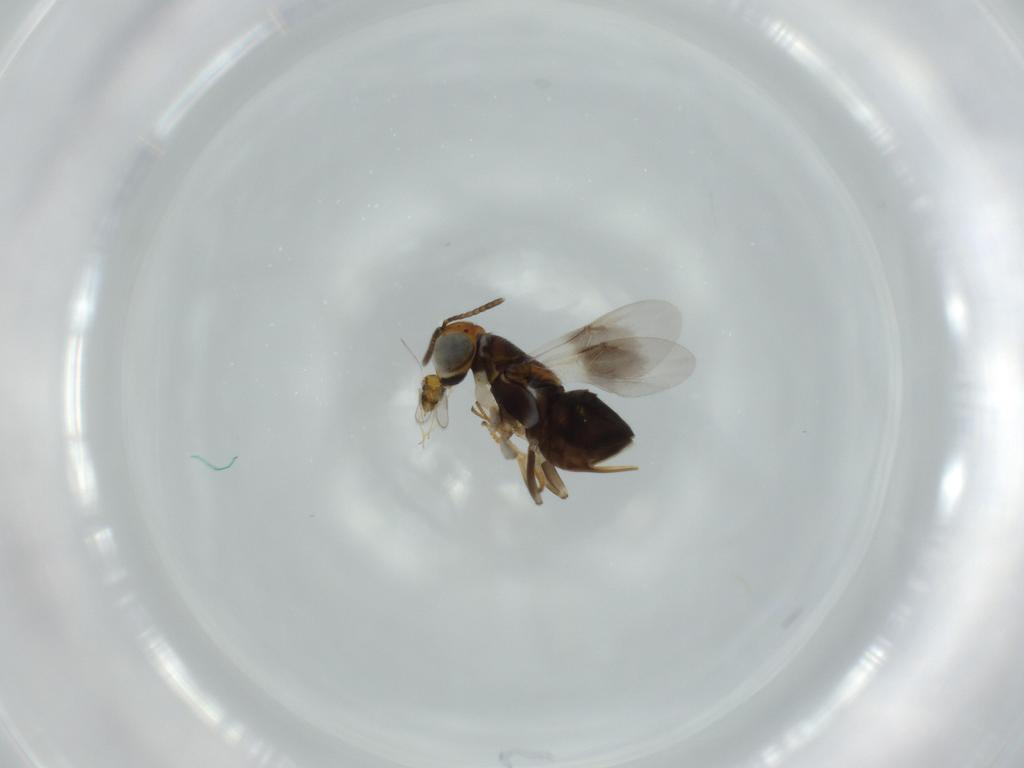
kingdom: Animalia
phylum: Arthropoda
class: Insecta
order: Hymenoptera
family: Aphelinidae
